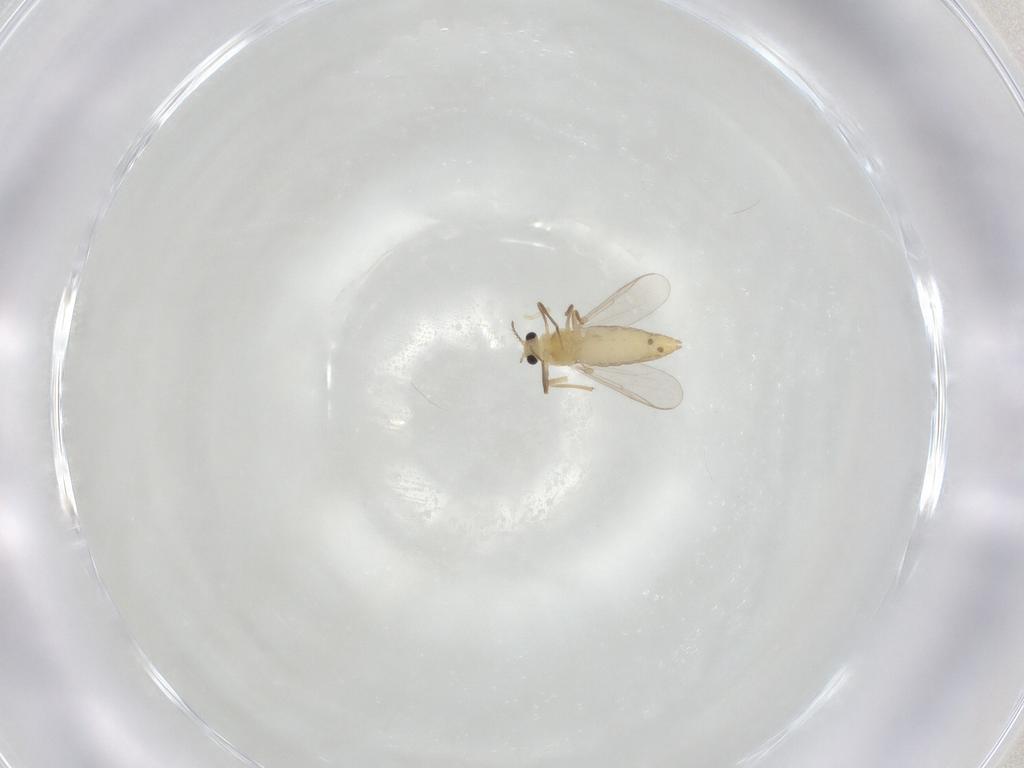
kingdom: Animalia
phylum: Arthropoda
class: Insecta
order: Diptera
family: Chironomidae
